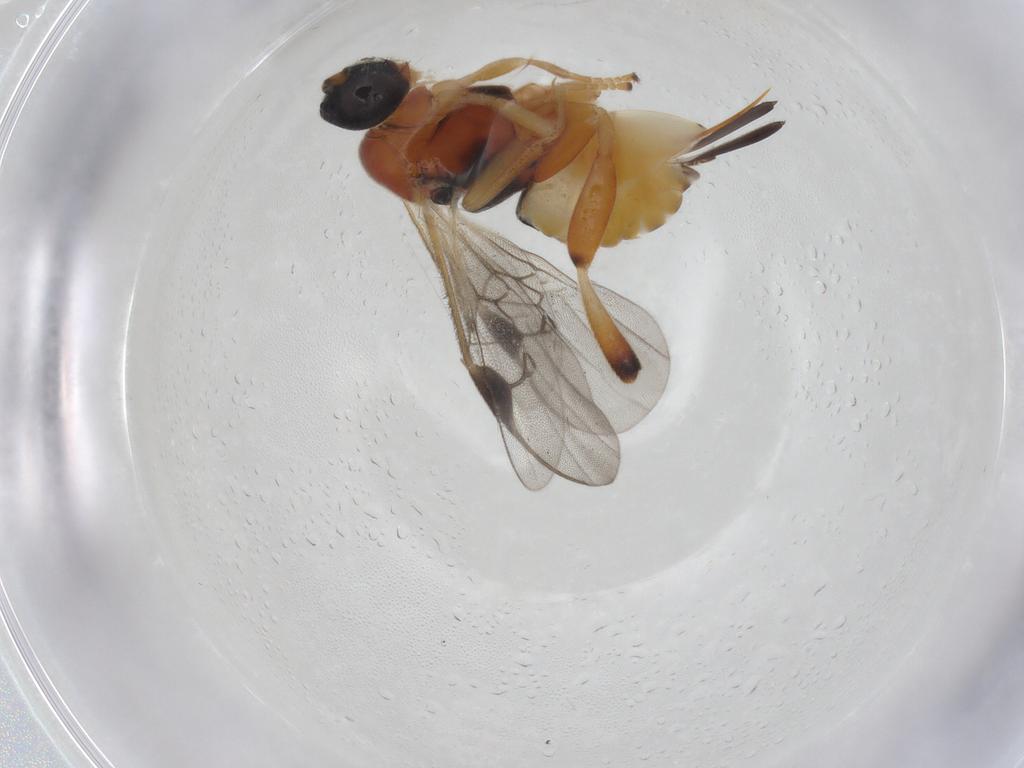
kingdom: Animalia
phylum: Arthropoda
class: Insecta
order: Hymenoptera
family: Braconidae
